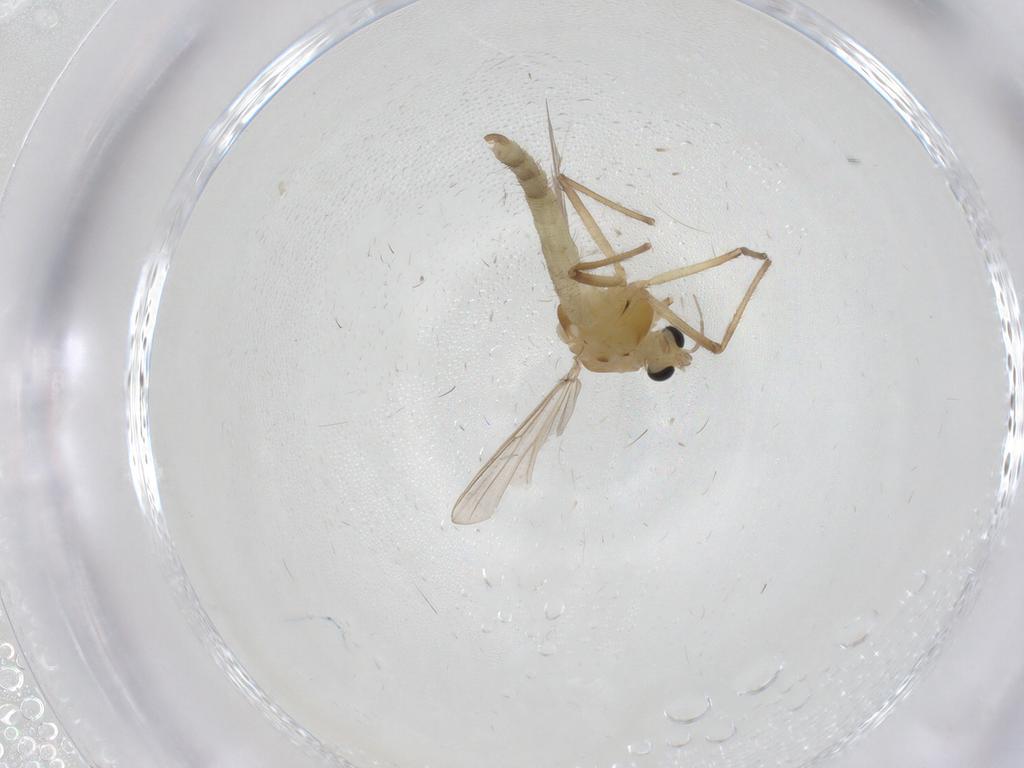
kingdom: Animalia
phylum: Arthropoda
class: Insecta
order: Diptera
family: Chironomidae
